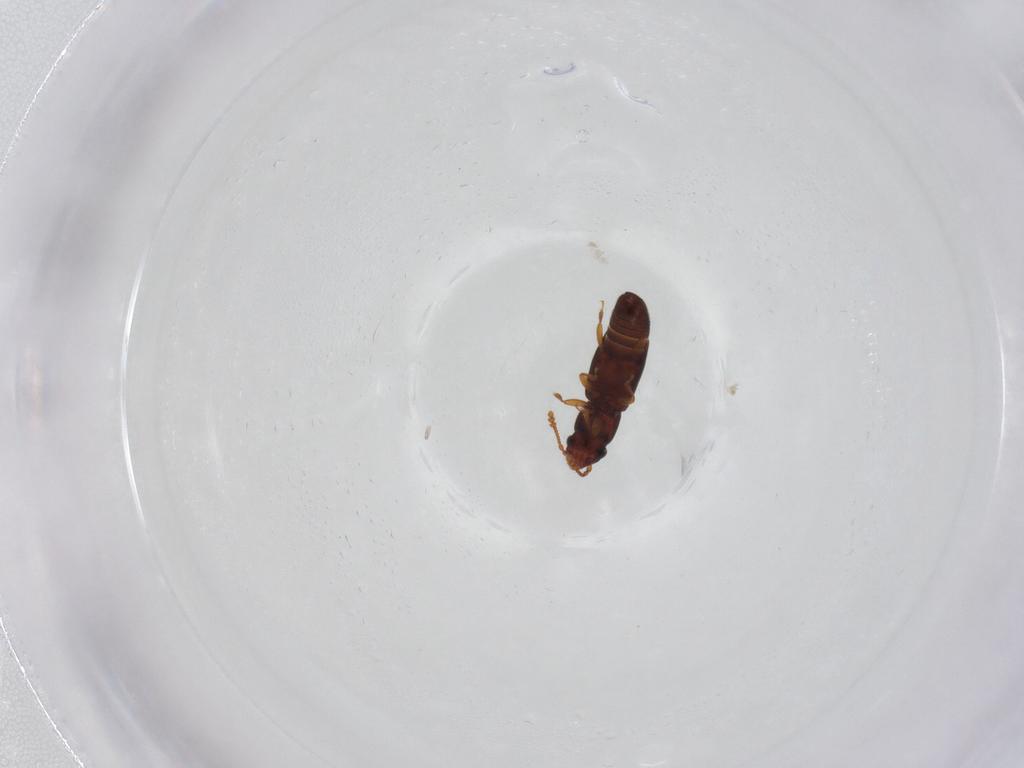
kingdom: Animalia
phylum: Arthropoda
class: Insecta
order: Coleoptera
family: Smicripidae
